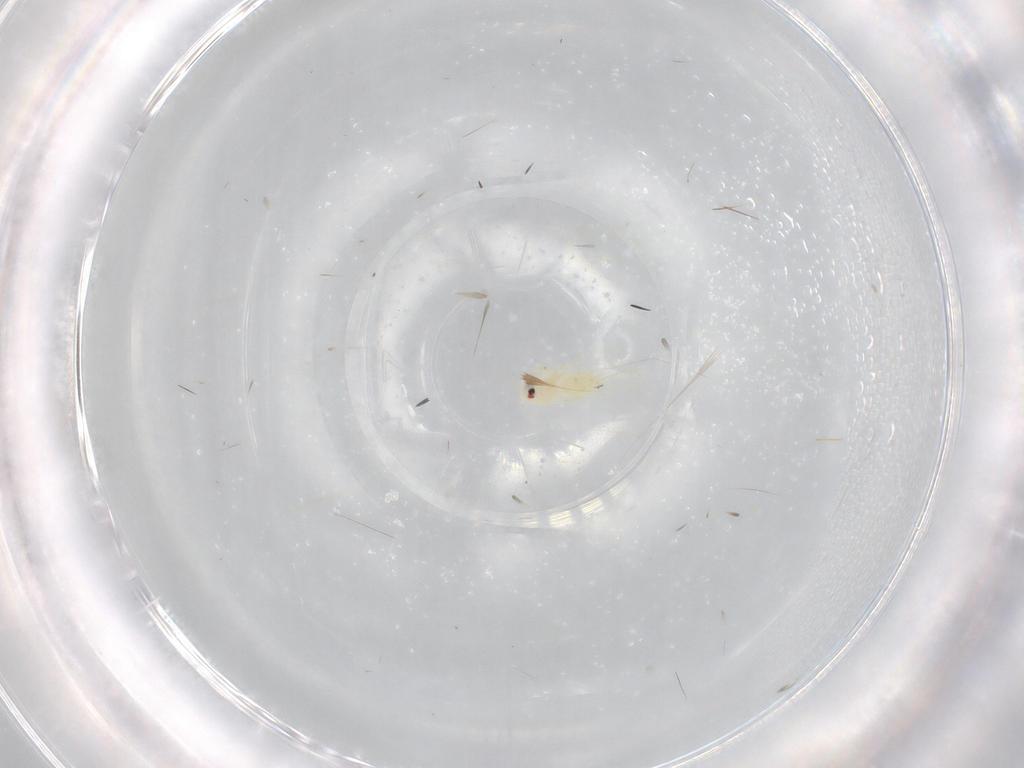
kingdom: Animalia
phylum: Arthropoda
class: Insecta
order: Hemiptera
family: Aleyrodidae
